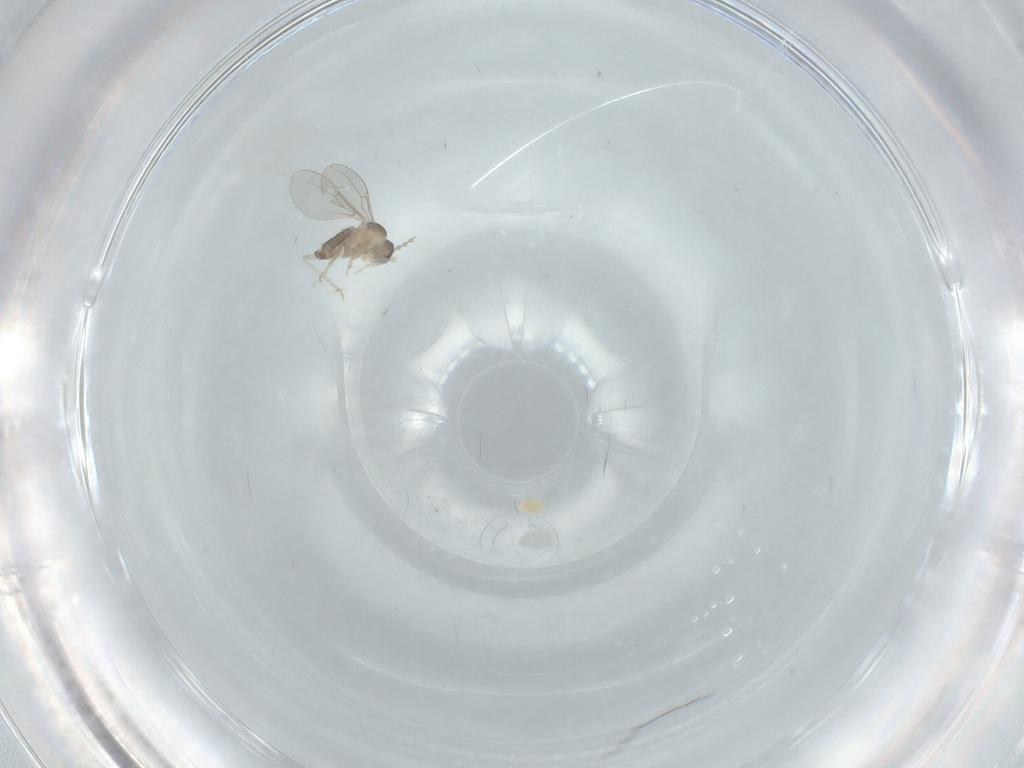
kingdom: Animalia
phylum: Arthropoda
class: Insecta
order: Diptera
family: Cecidomyiidae
